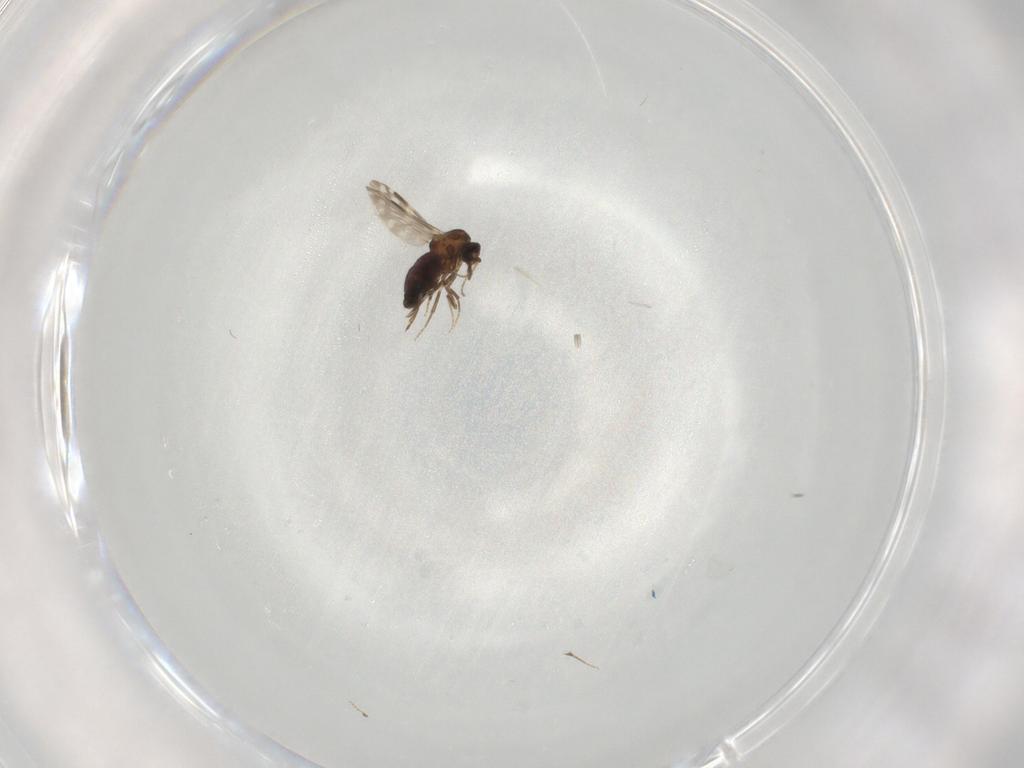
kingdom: Animalia
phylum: Arthropoda
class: Insecta
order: Diptera
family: Ceratopogonidae
